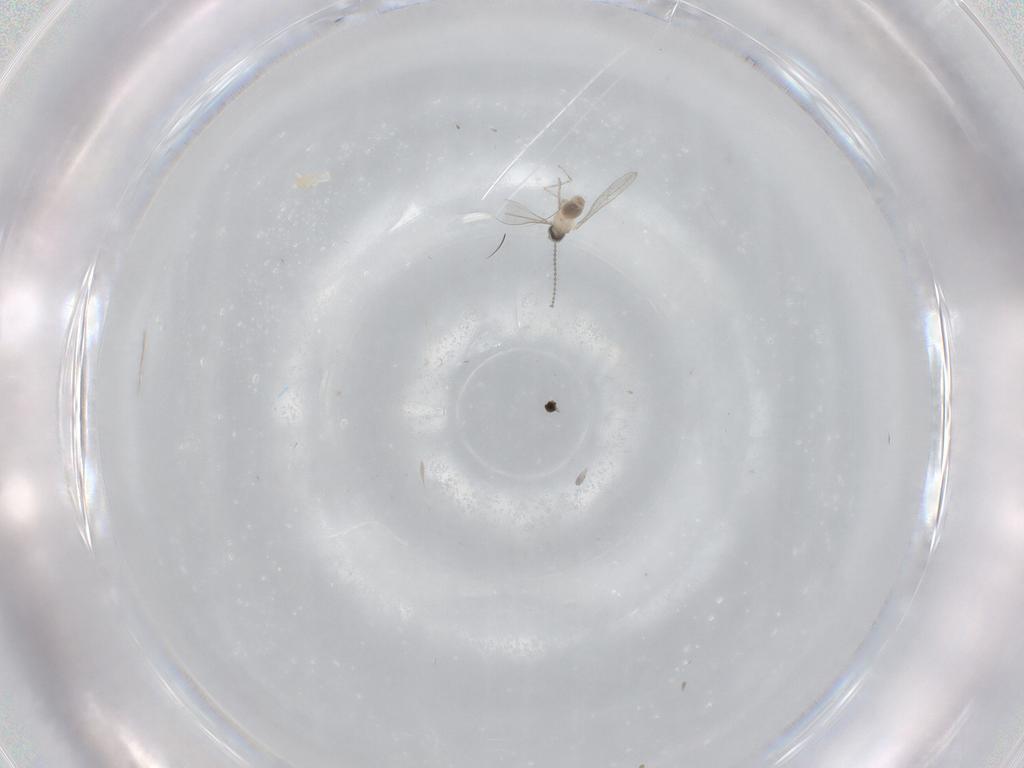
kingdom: Animalia
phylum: Arthropoda
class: Insecta
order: Diptera
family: Cecidomyiidae
